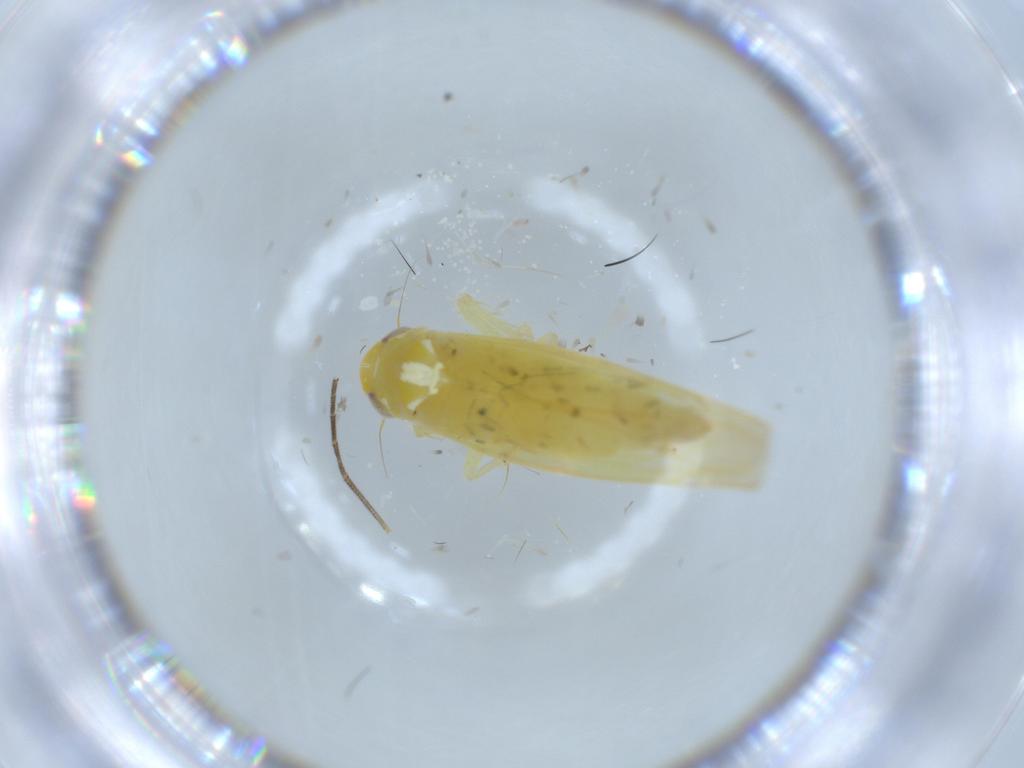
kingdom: Animalia
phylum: Arthropoda
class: Insecta
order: Hemiptera
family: Cicadellidae
